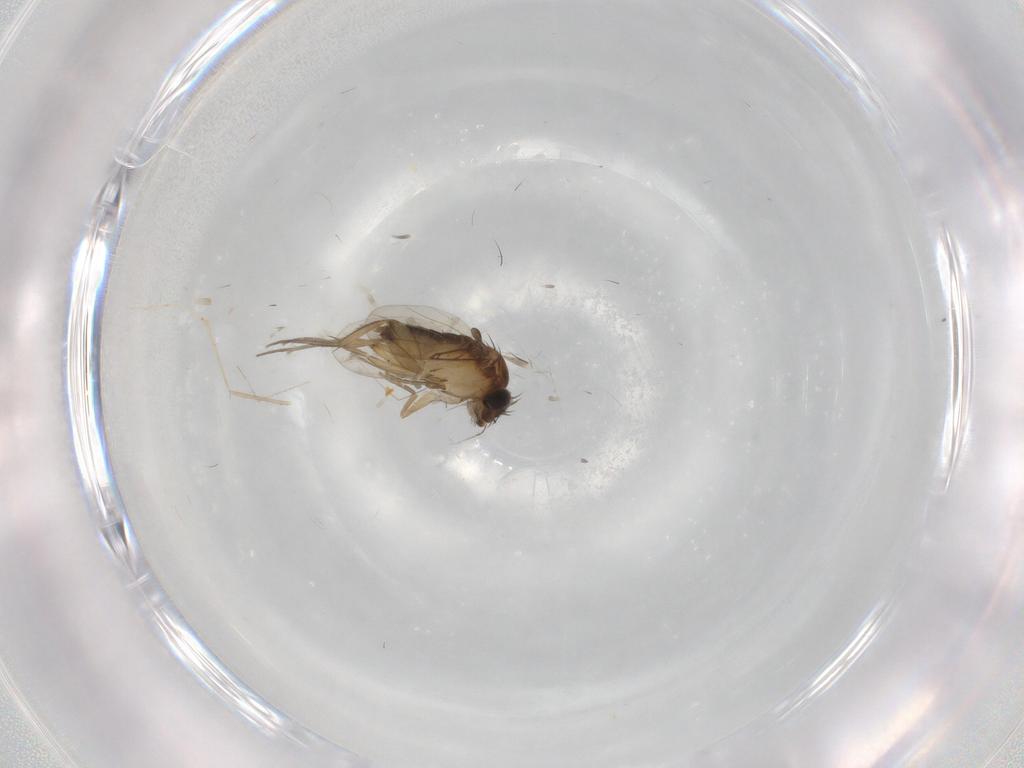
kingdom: Animalia
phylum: Arthropoda
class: Insecta
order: Diptera
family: Phoridae
